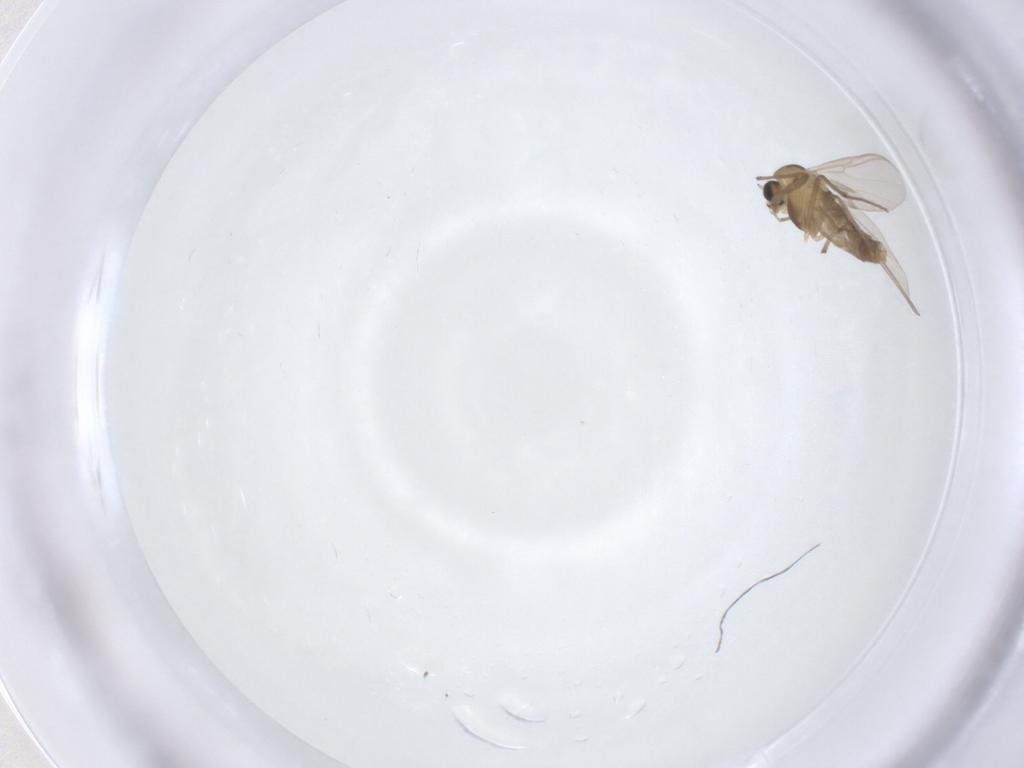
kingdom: Animalia
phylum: Arthropoda
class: Insecta
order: Diptera
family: Chironomidae
